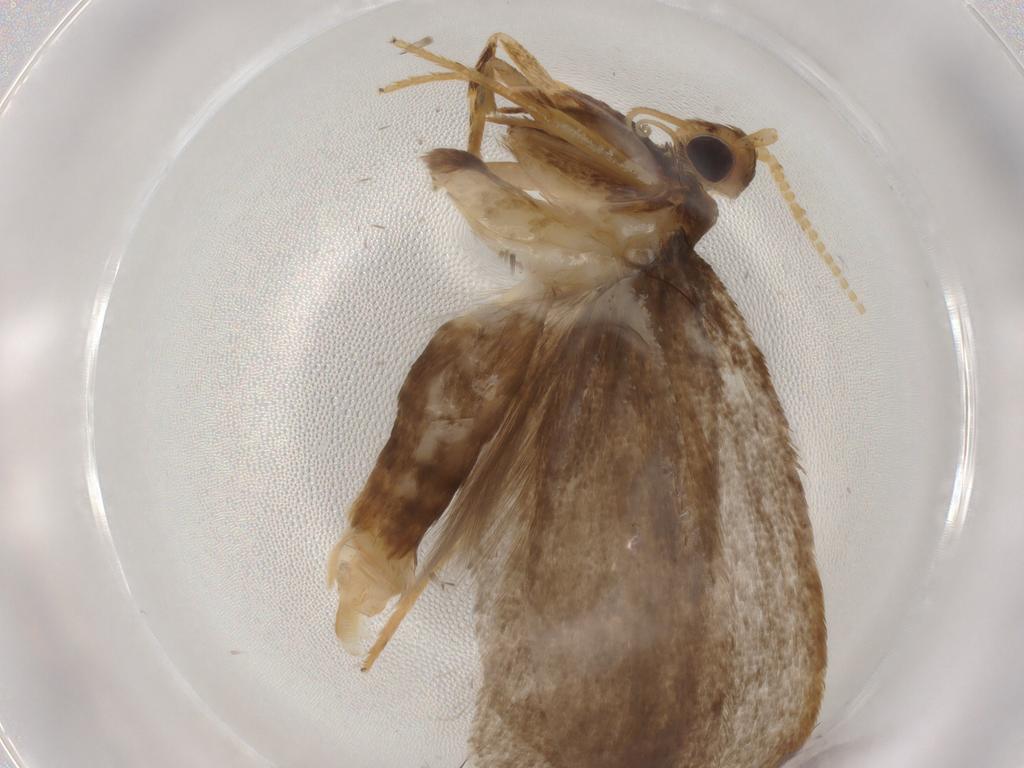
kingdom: Animalia
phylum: Arthropoda
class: Insecta
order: Lepidoptera
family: Lecithoceridae
